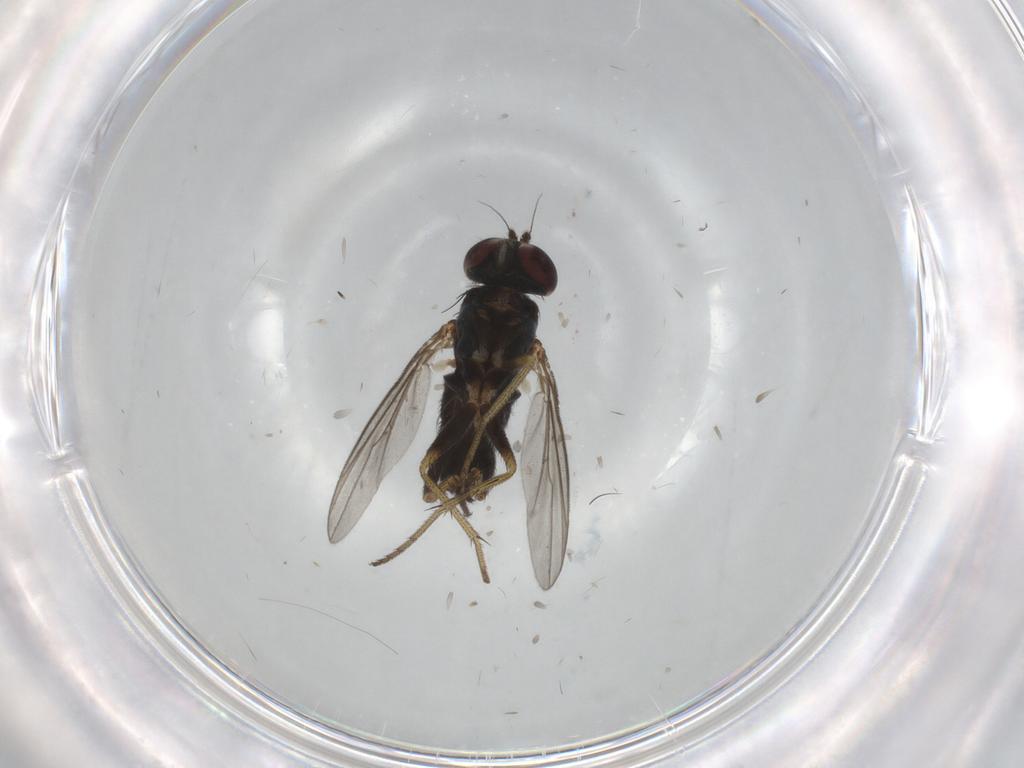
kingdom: Animalia
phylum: Arthropoda
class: Insecta
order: Diptera
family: Dolichopodidae
